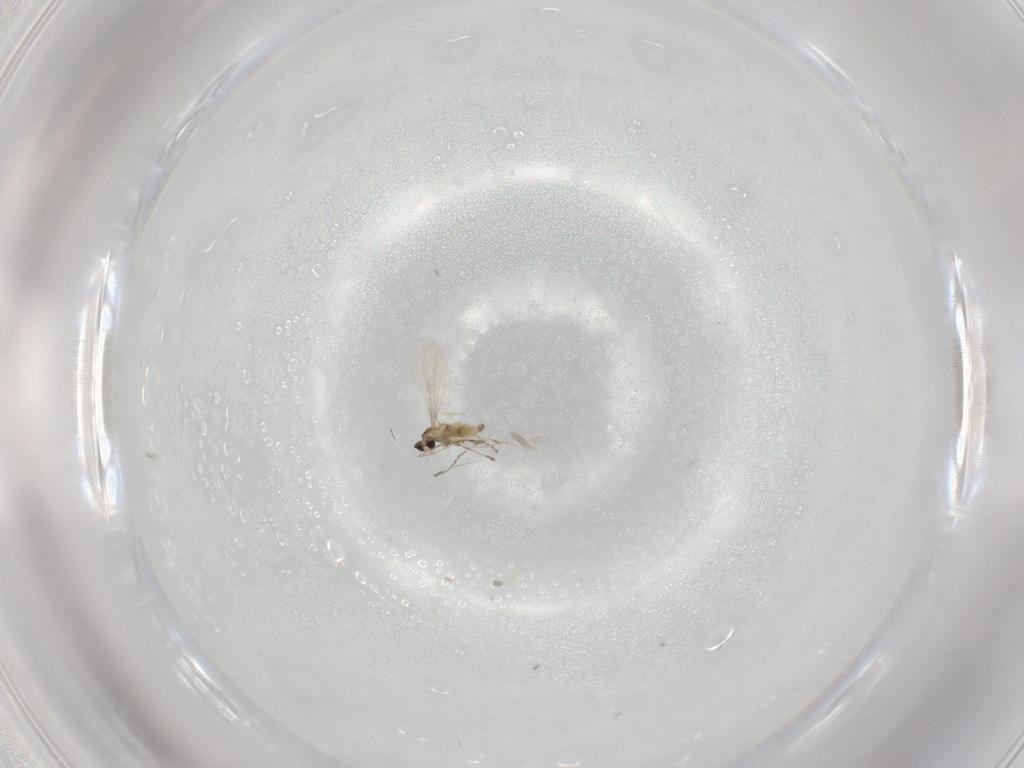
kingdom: Animalia
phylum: Arthropoda
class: Insecta
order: Diptera
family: Cecidomyiidae
